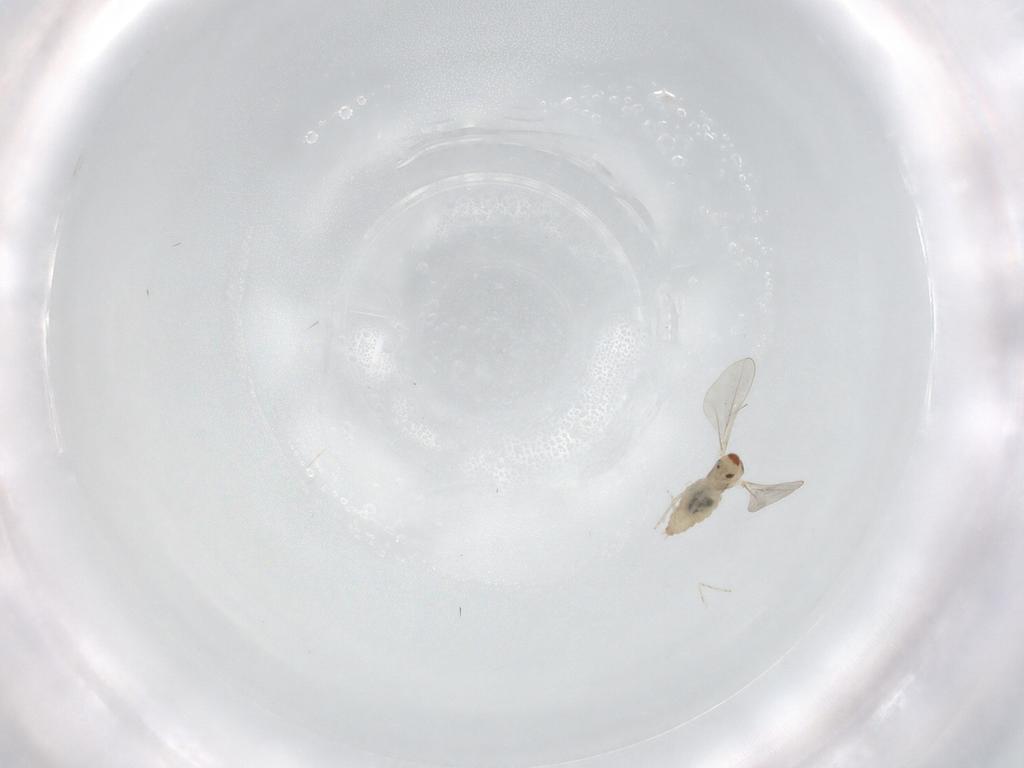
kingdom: Animalia
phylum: Arthropoda
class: Insecta
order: Diptera
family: Cecidomyiidae
